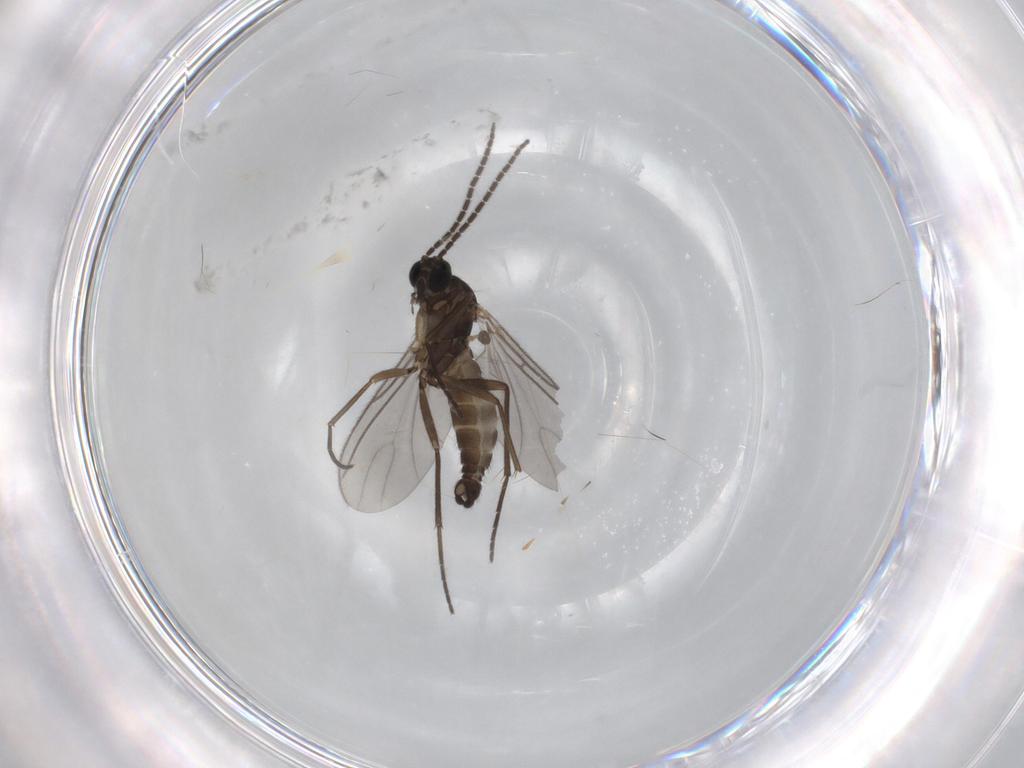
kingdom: Animalia
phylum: Arthropoda
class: Insecta
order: Diptera
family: Sciaridae
